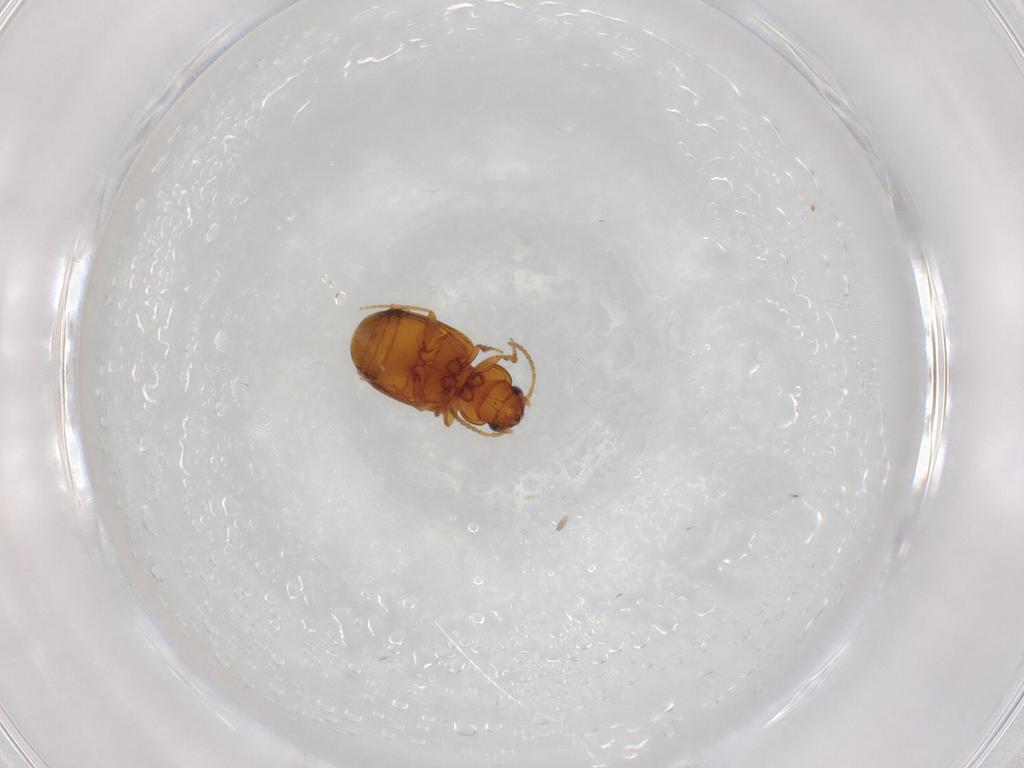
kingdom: Animalia
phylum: Arthropoda
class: Insecta
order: Coleoptera
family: Carabidae
